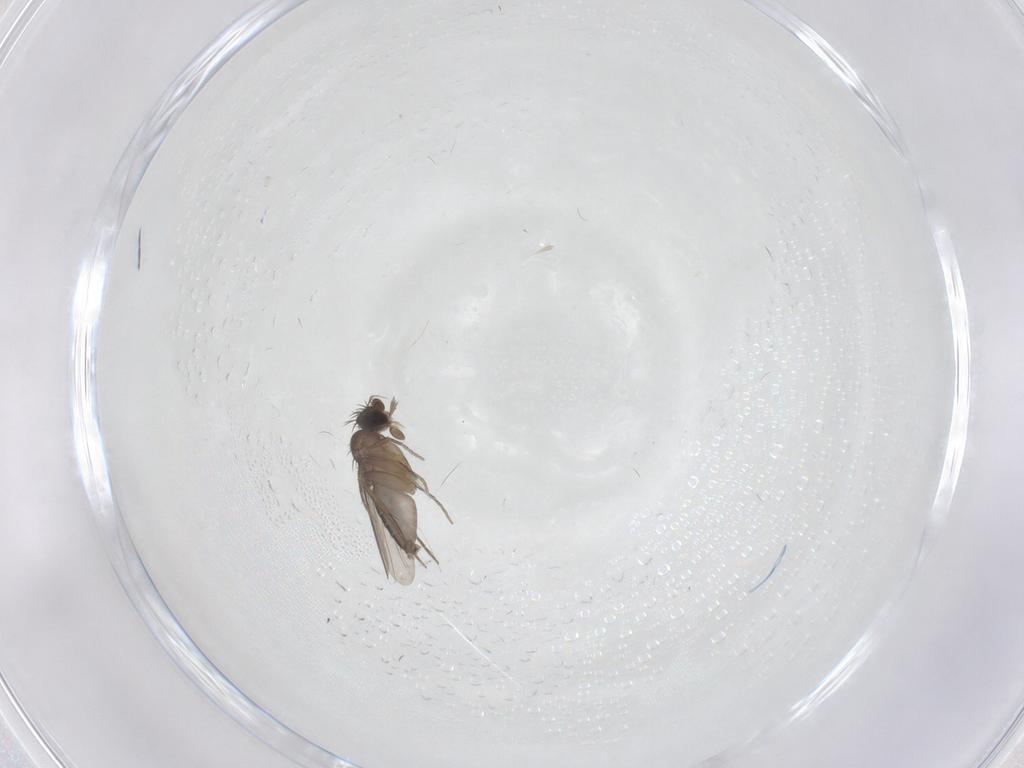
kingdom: Animalia
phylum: Arthropoda
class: Insecta
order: Diptera
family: Phoridae
